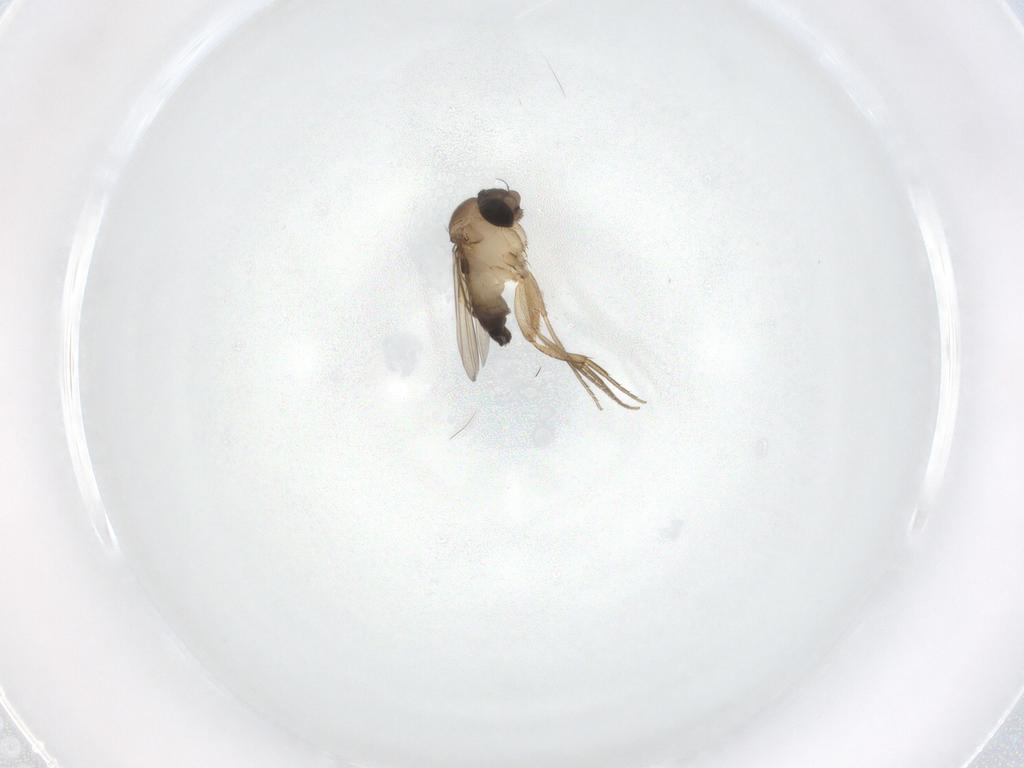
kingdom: Animalia
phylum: Arthropoda
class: Insecta
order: Diptera
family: Phoridae
